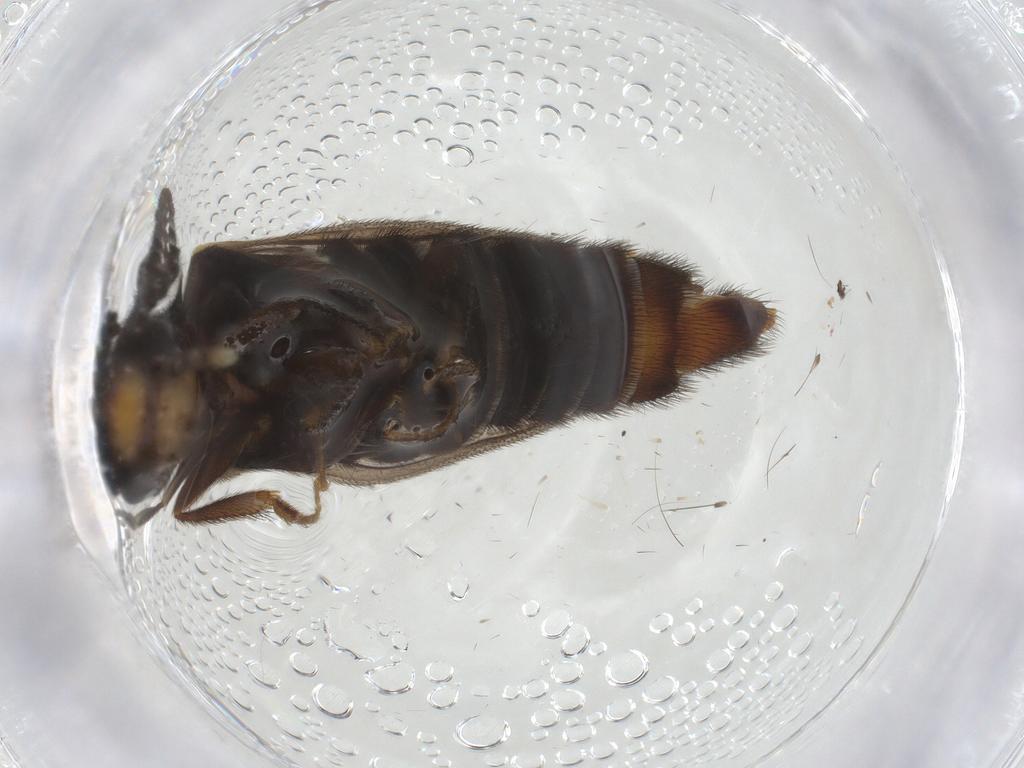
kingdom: Animalia
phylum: Arthropoda
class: Insecta
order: Coleoptera
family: Phengodidae
